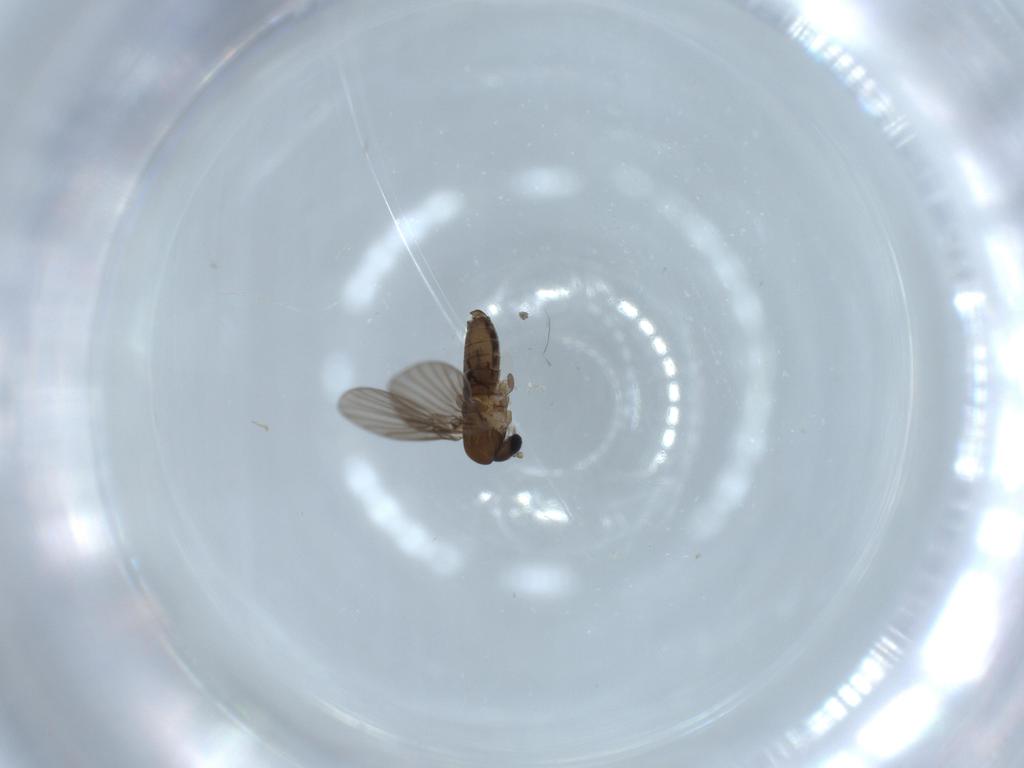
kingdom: Animalia
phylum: Arthropoda
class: Insecta
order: Diptera
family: Psychodidae
